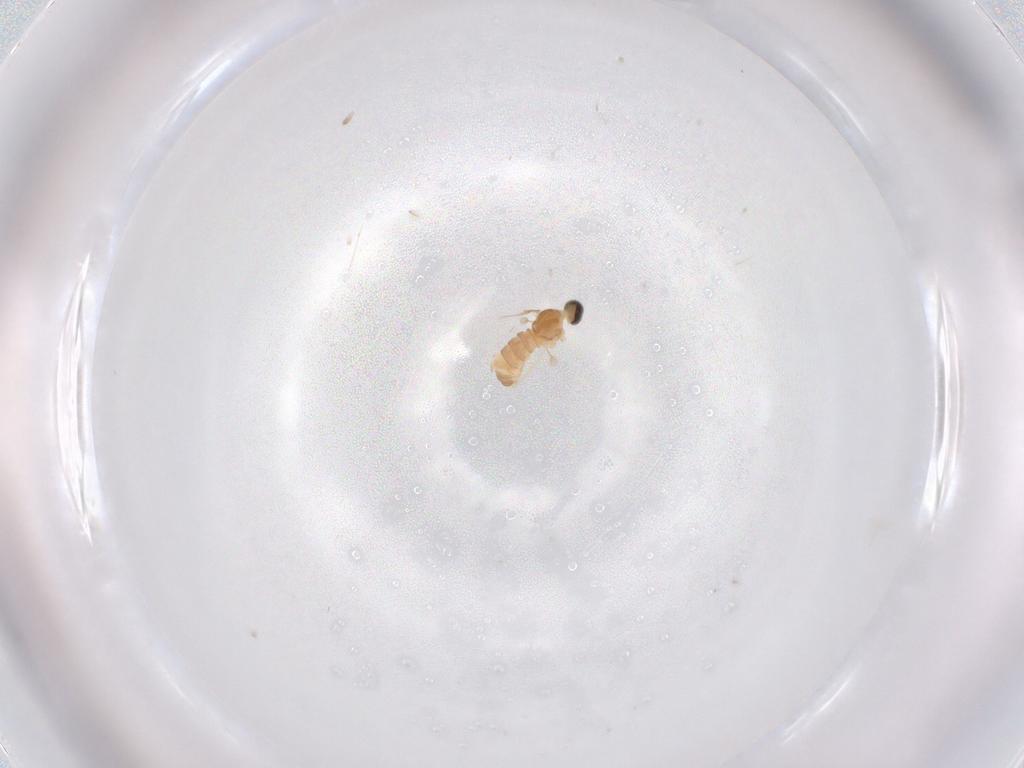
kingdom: Animalia
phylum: Arthropoda
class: Insecta
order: Diptera
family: Cecidomyiidae
